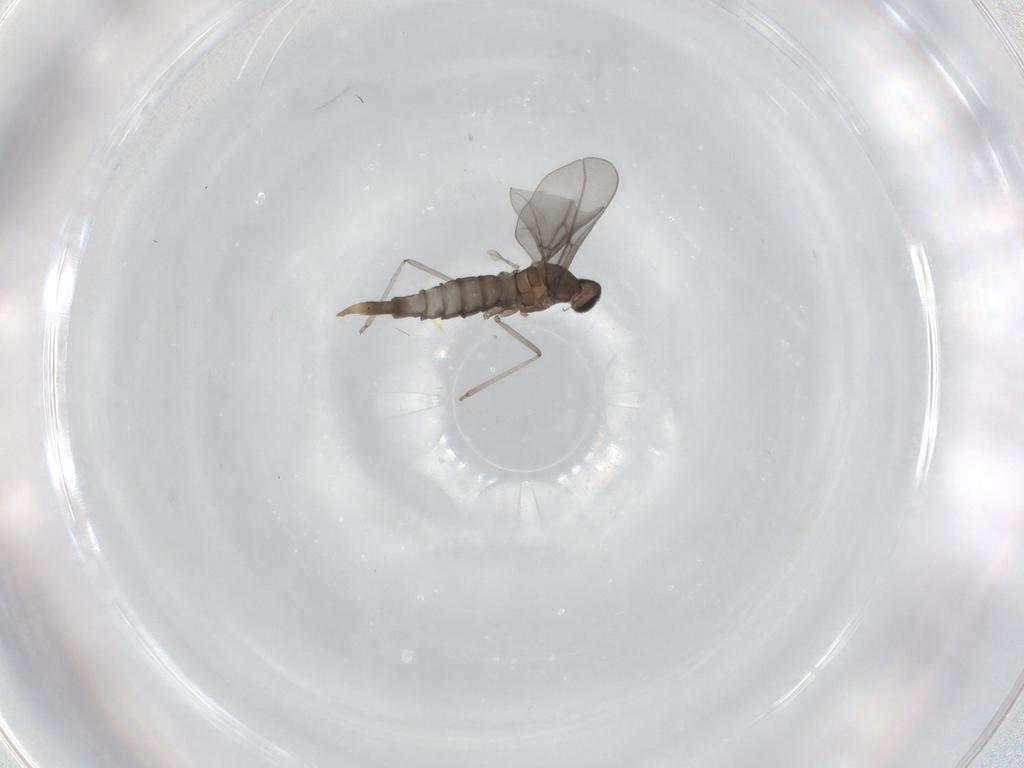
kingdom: Animalia
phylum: Arthropoda
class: Insecta
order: Diptera
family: Cecidomyiidae
